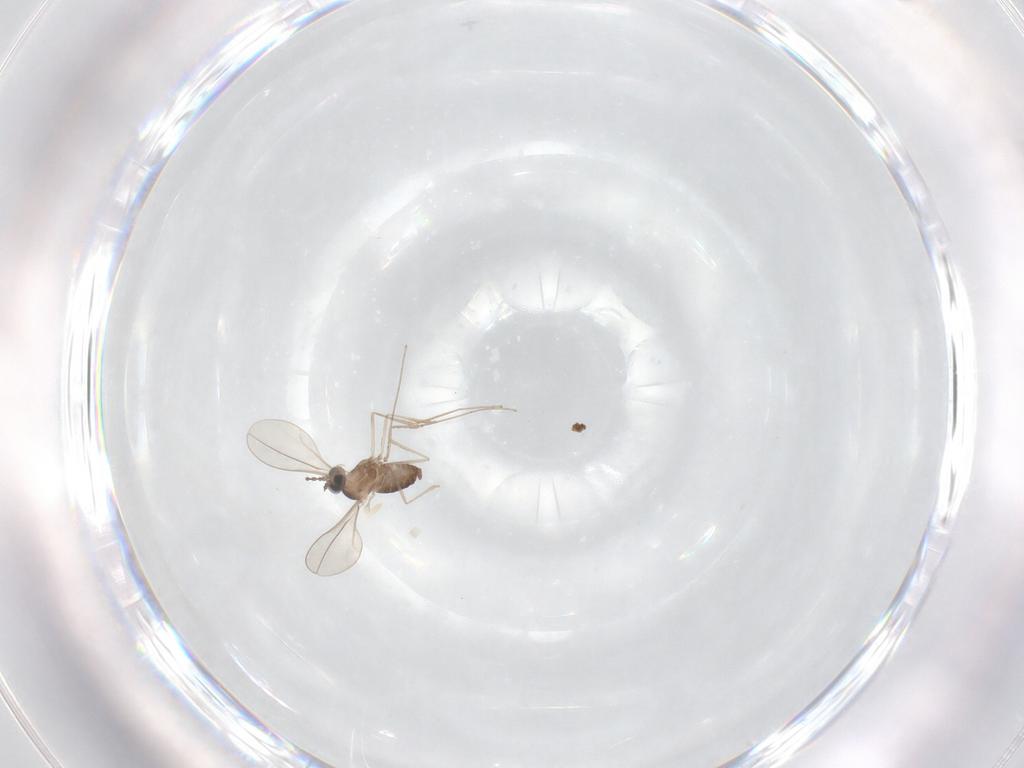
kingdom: Animalia
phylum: Arthropoda
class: Insecta
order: Diptera
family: Cecidomyiidae
